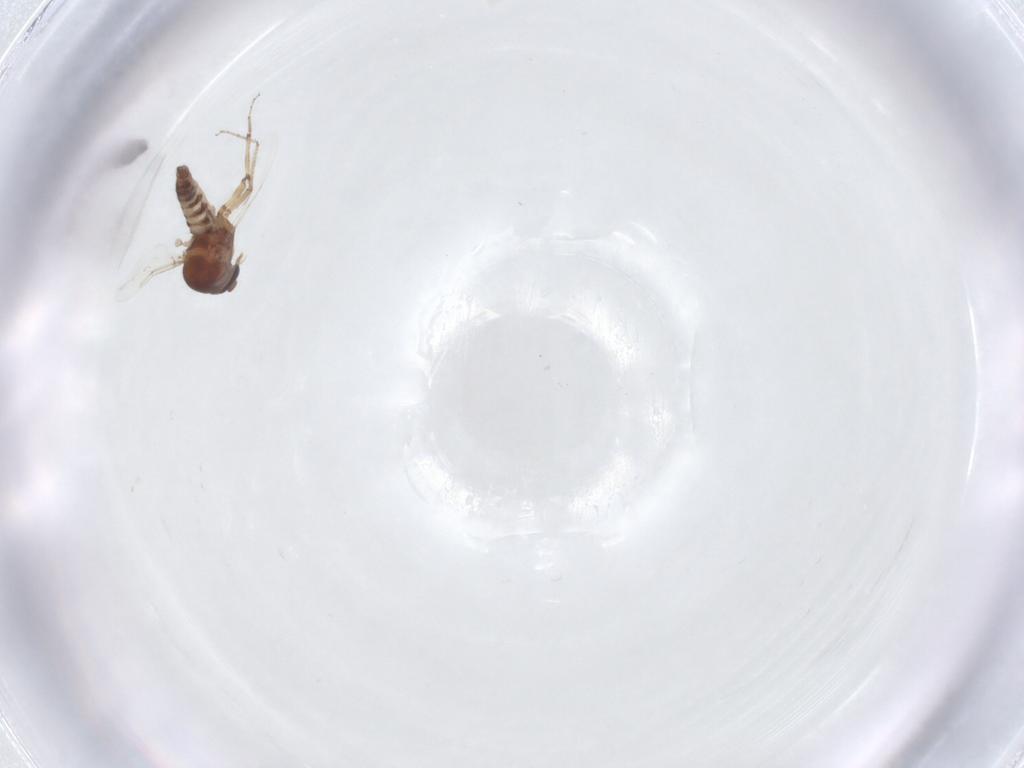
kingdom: Animalia
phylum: Arthropoda
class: Insecta
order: Diptera
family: Ceratopogonidae
